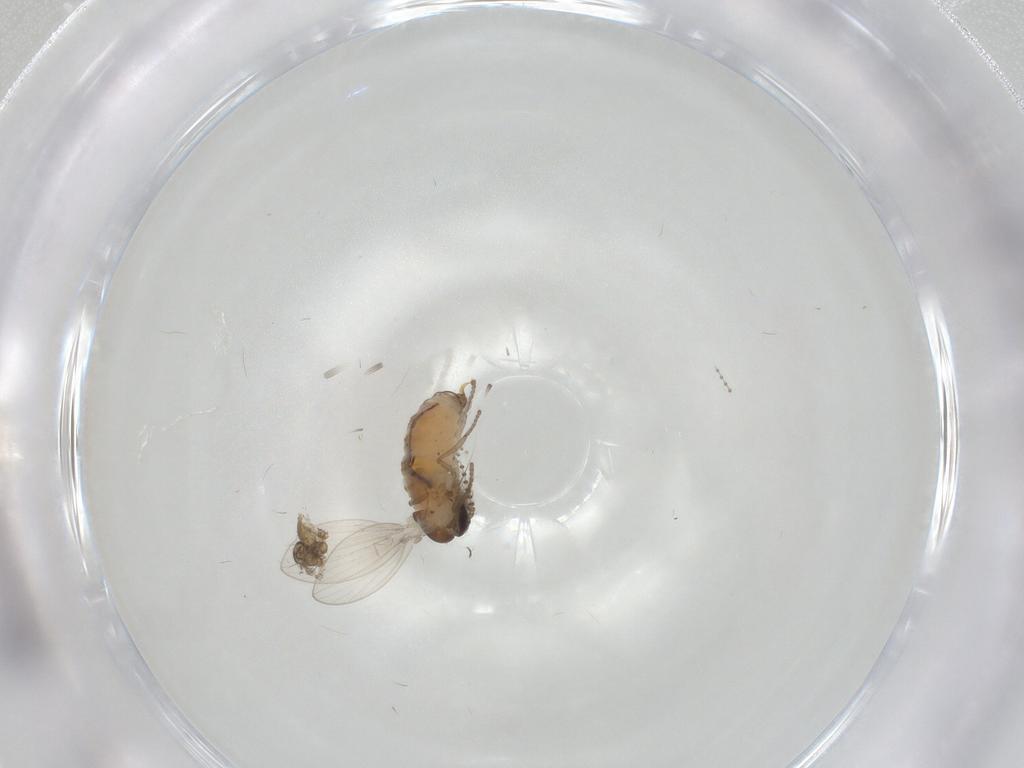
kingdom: Animalia
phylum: Arthropoda
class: Insecta
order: Diptera
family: Psychodidae
